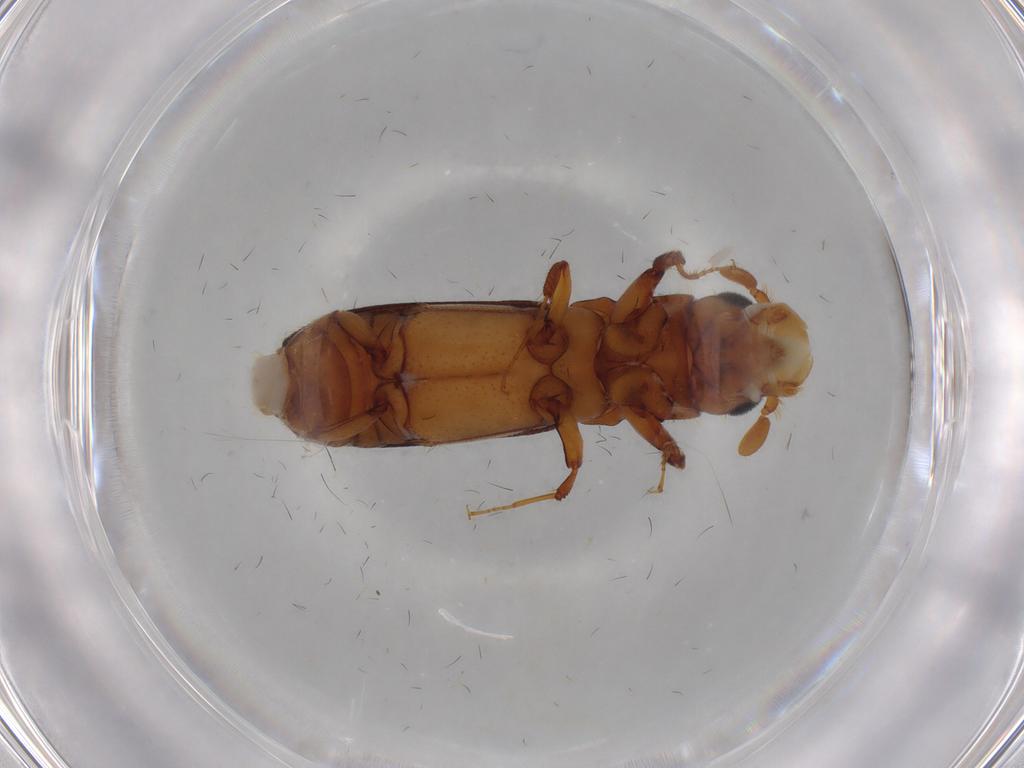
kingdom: Animalia
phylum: Arthropoda
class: Insecta
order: Coleoptera
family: Curculionidae
